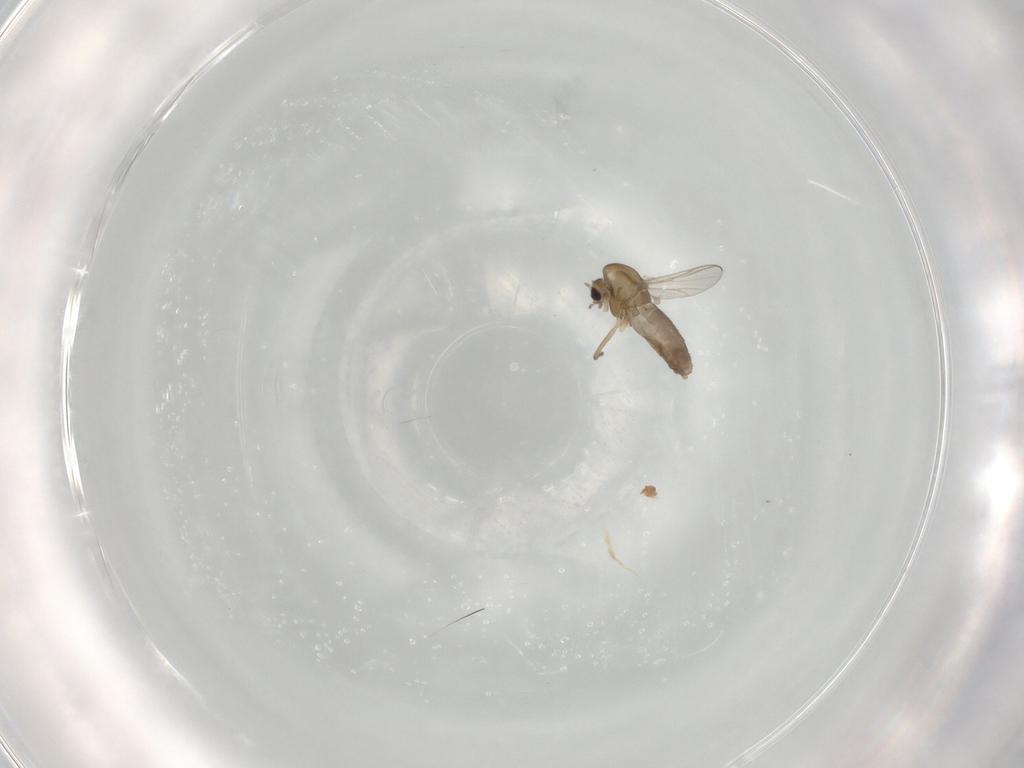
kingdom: Animalia
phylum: Arthropoda
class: Insecta
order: Diptera
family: Chironomidae
